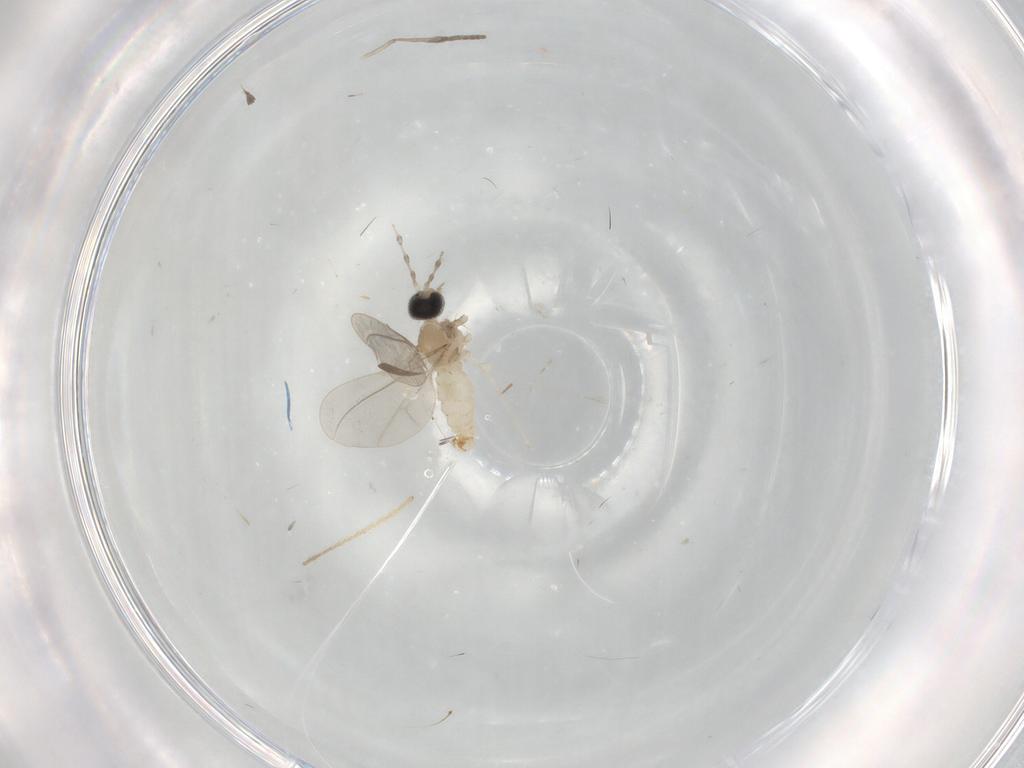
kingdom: Animalia
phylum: Arthropoda
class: Insecta
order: Diptera
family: Cecidomyiidae
